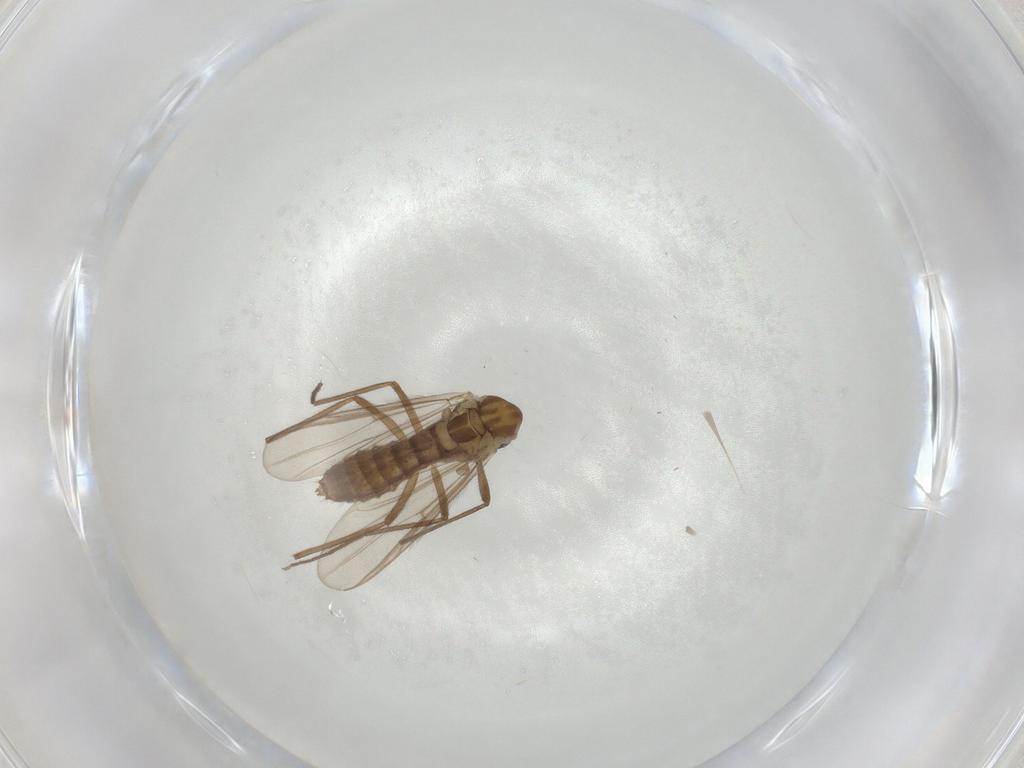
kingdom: Animalia
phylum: Arthropoda
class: Insecta
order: Diptera
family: Chironomidae
